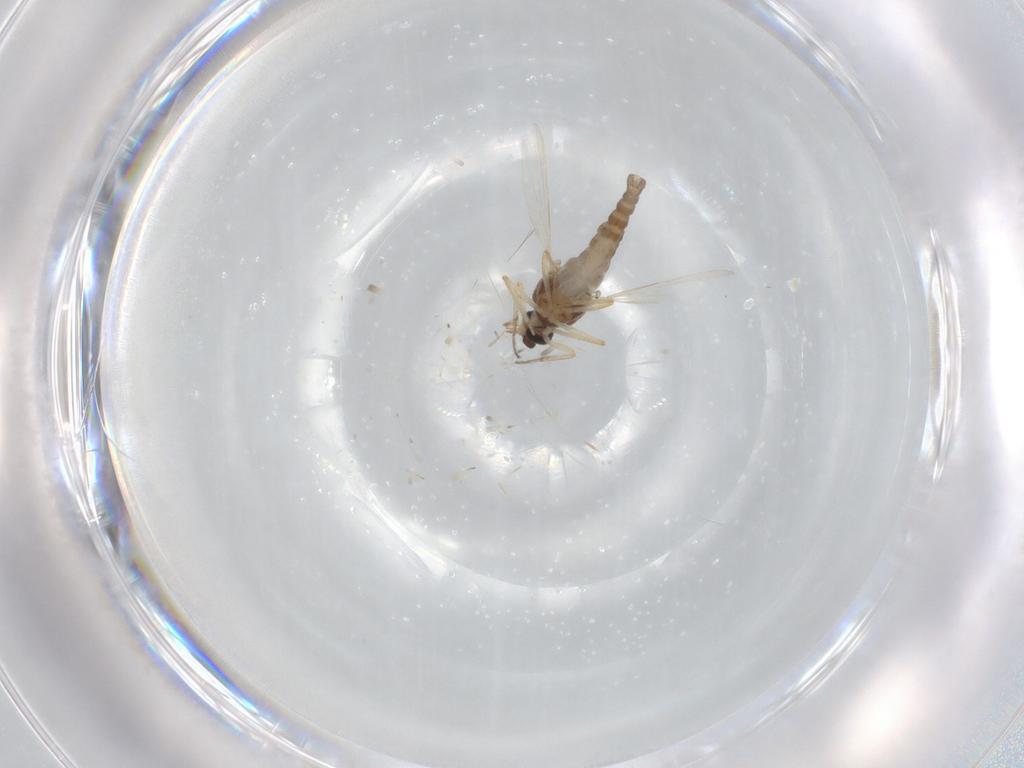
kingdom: Animalia
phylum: Arthropoda
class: Insecta
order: Diptera
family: Ceratopogonidae
